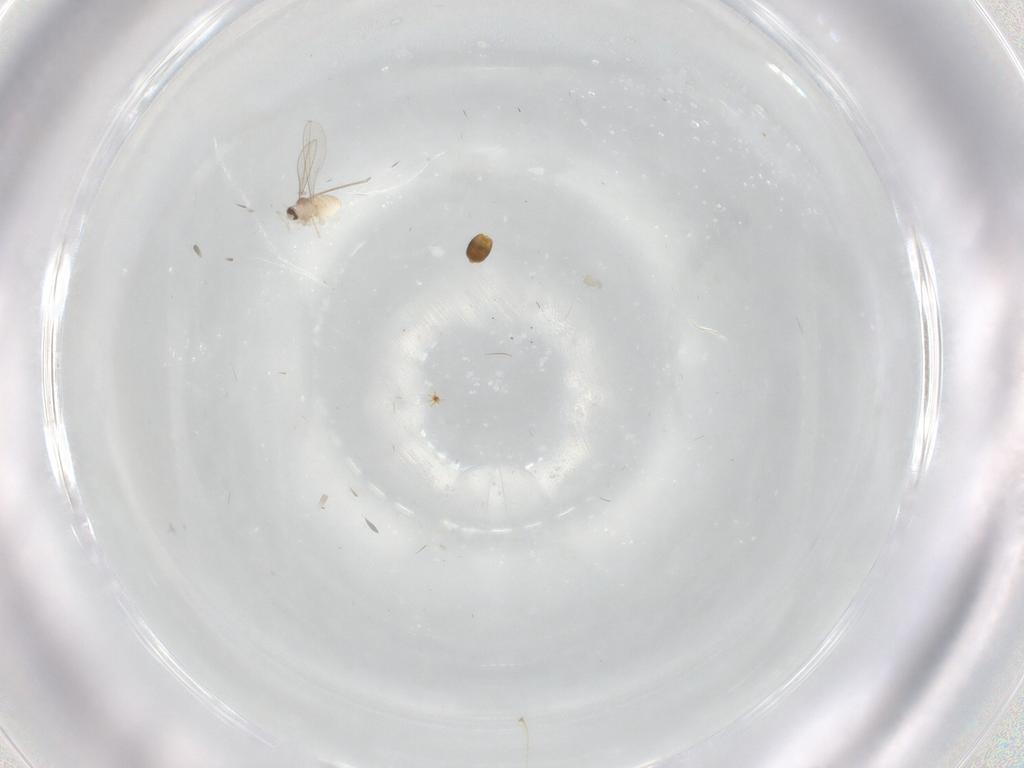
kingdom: Animalia
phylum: Arthropoda
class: Insecta
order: Diptera
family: Cecidomyiidae
